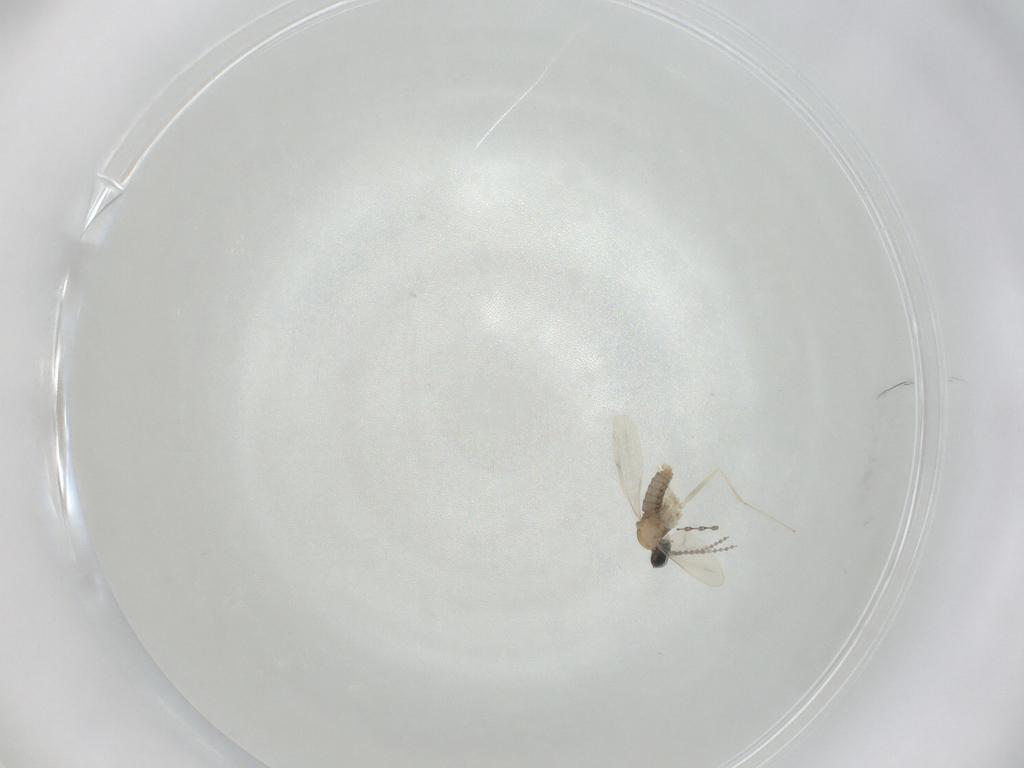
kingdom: Animalia
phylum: Arthropoda
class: Insecta
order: Diptera
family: Cecidomyiidae
